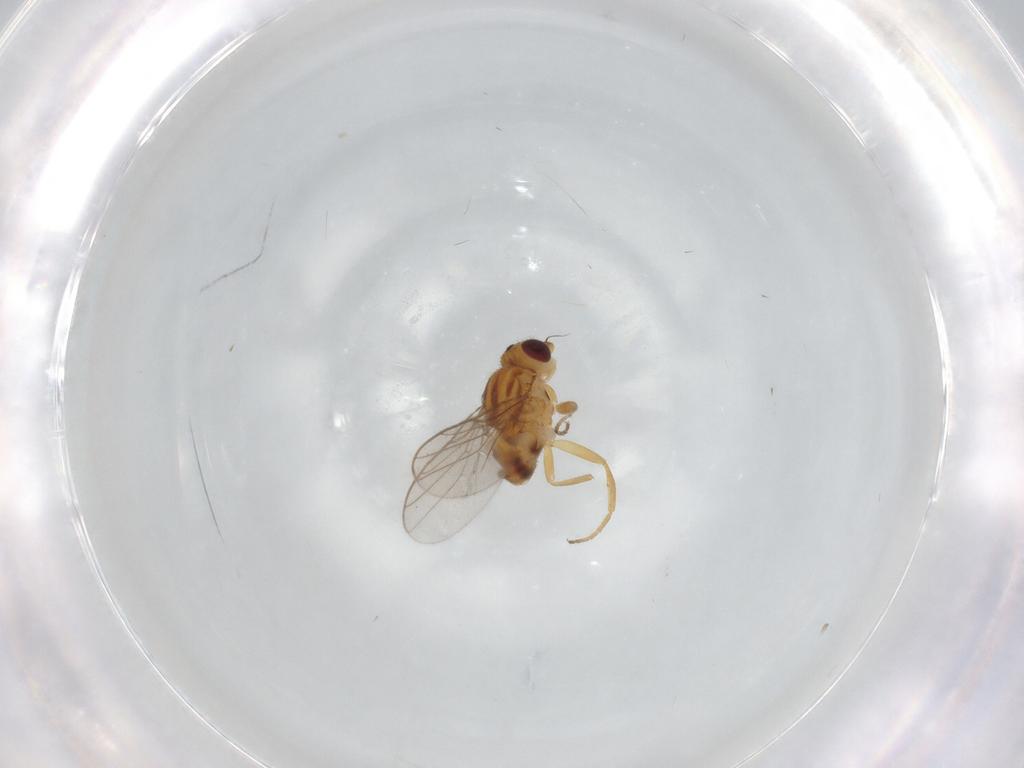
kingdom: Animalia
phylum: Arthropoda
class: Insecta
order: Diptera
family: Chloropidae
